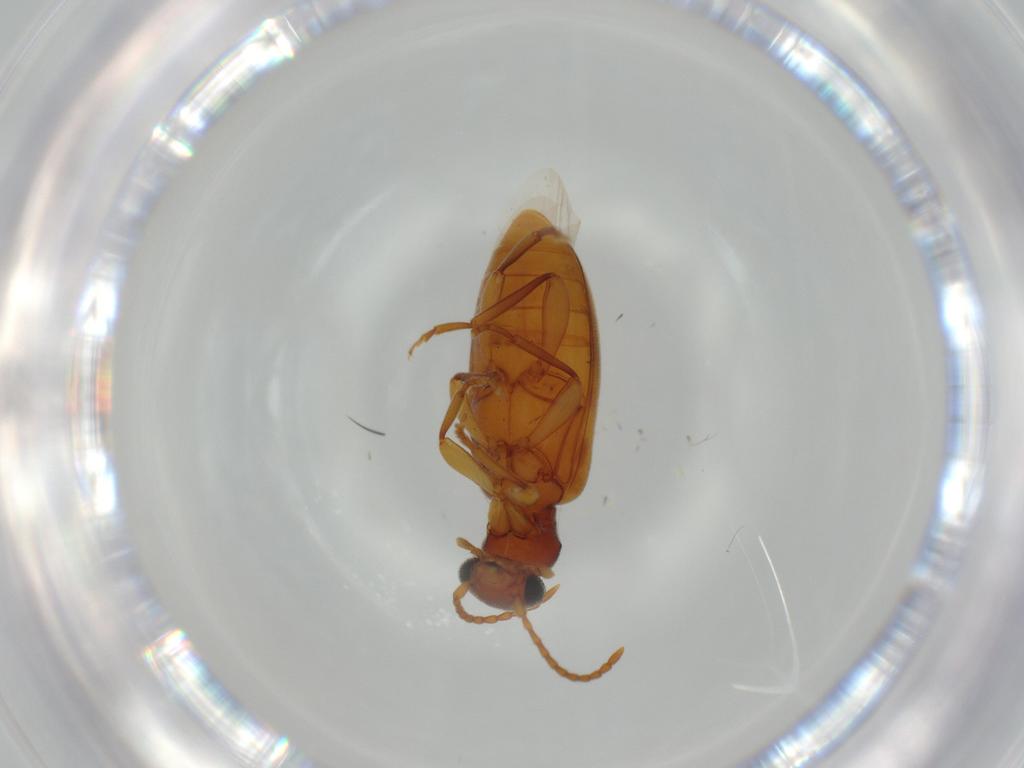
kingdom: Animalia
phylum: Arthropoda
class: Insecta
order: Coleoptera
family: Anthicidae
